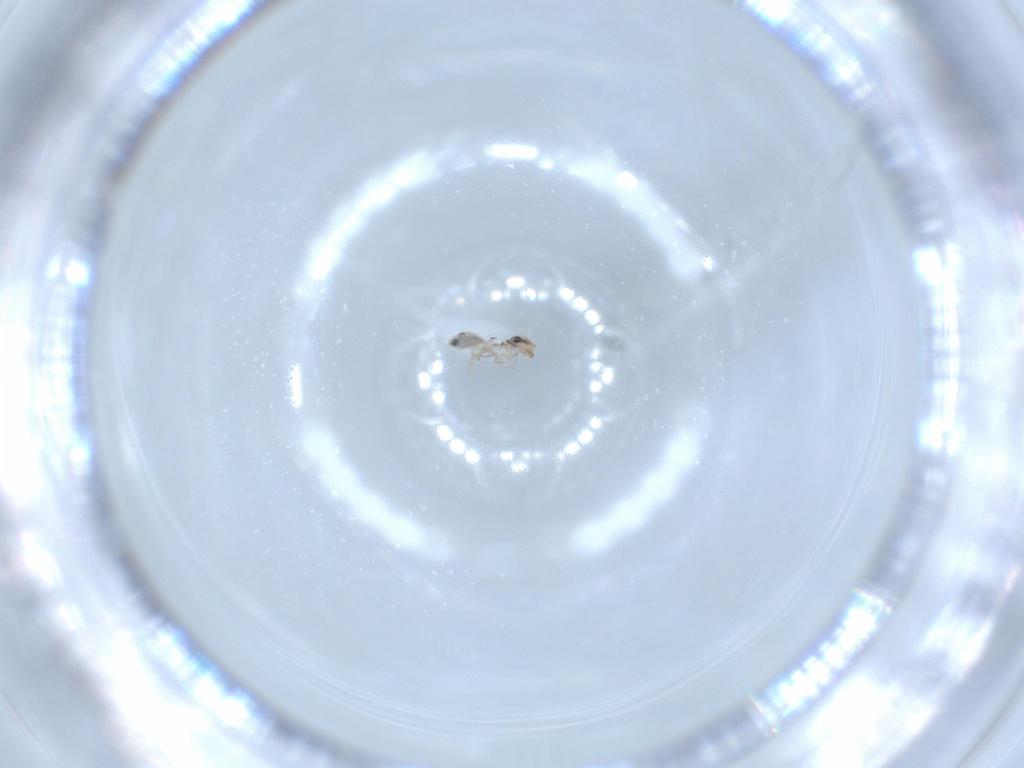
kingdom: Animalia
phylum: Arthropoda
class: Insecta
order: Psocodea
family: Lepidopsocidae
